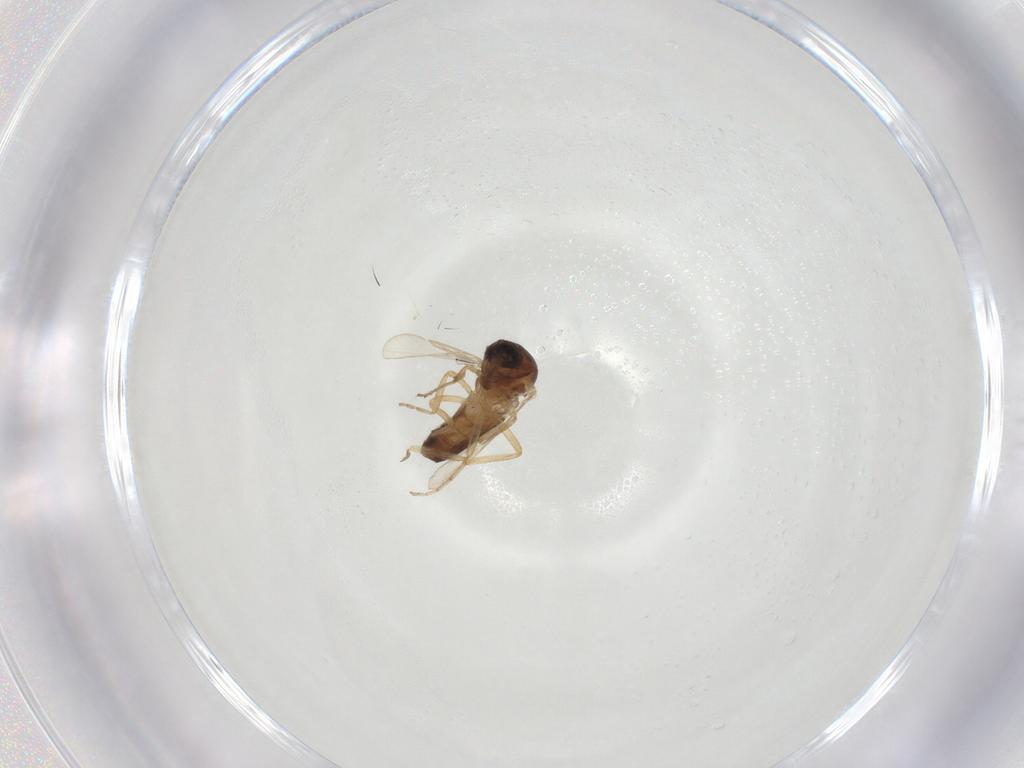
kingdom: Animalia
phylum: Arthropoda
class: Insecta
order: Diptera
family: Ceratopogonidae
